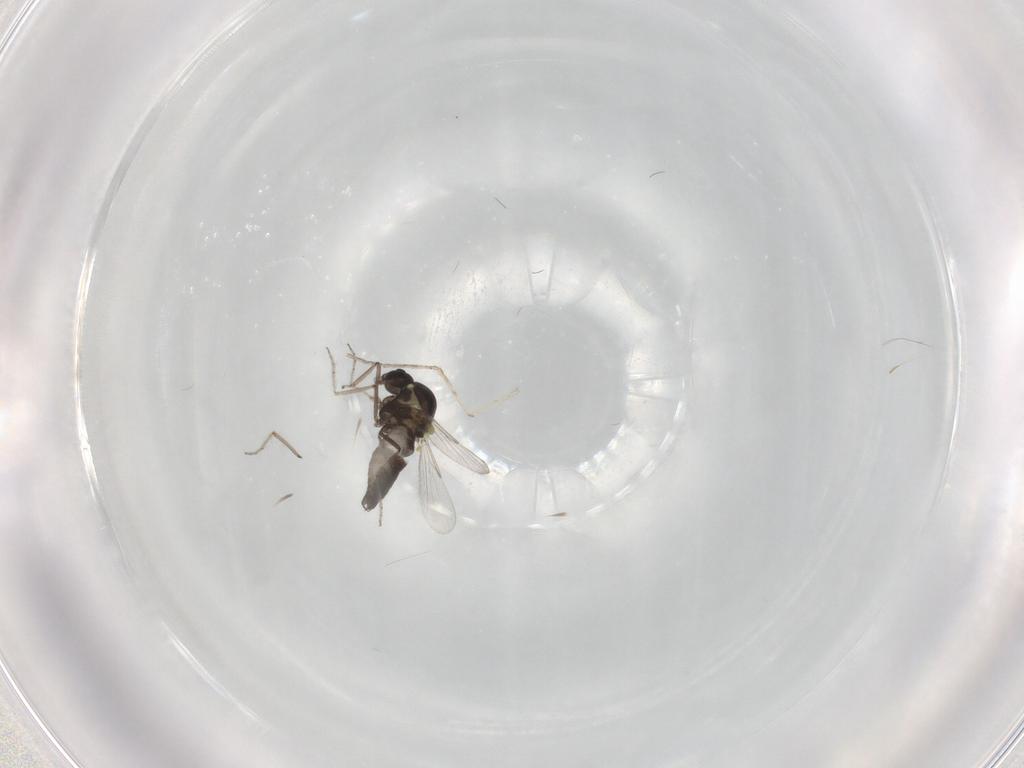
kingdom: Animalia
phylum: Arthropoda
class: Insecta
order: Diptera
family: Ceratopogonidae
